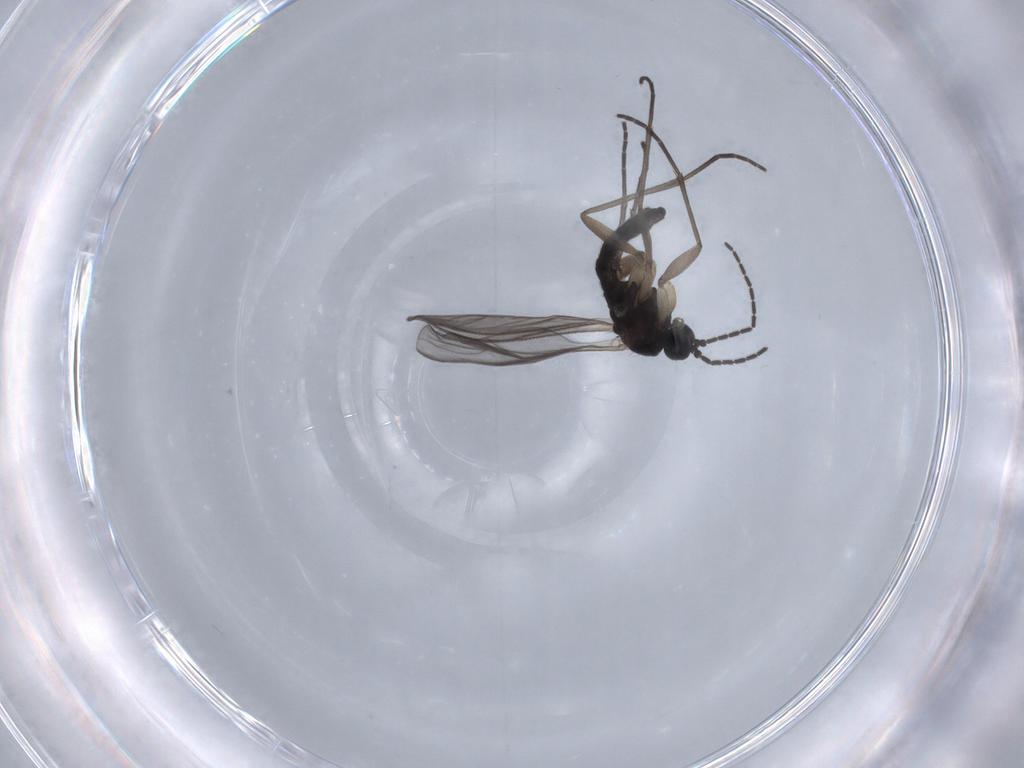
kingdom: Animalia
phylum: Arthropoda
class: Insecta
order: Diptera
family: Sciaridae
